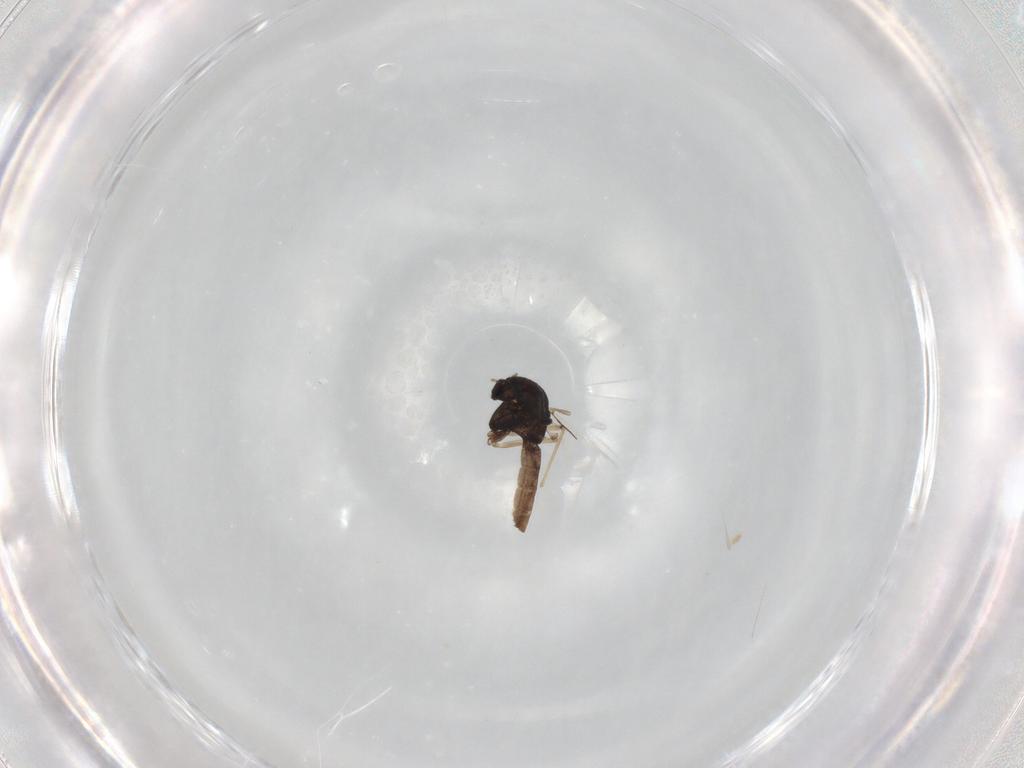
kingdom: Animalia
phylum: Arthropoda
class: Insecta
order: Diptera
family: Chironomidae
